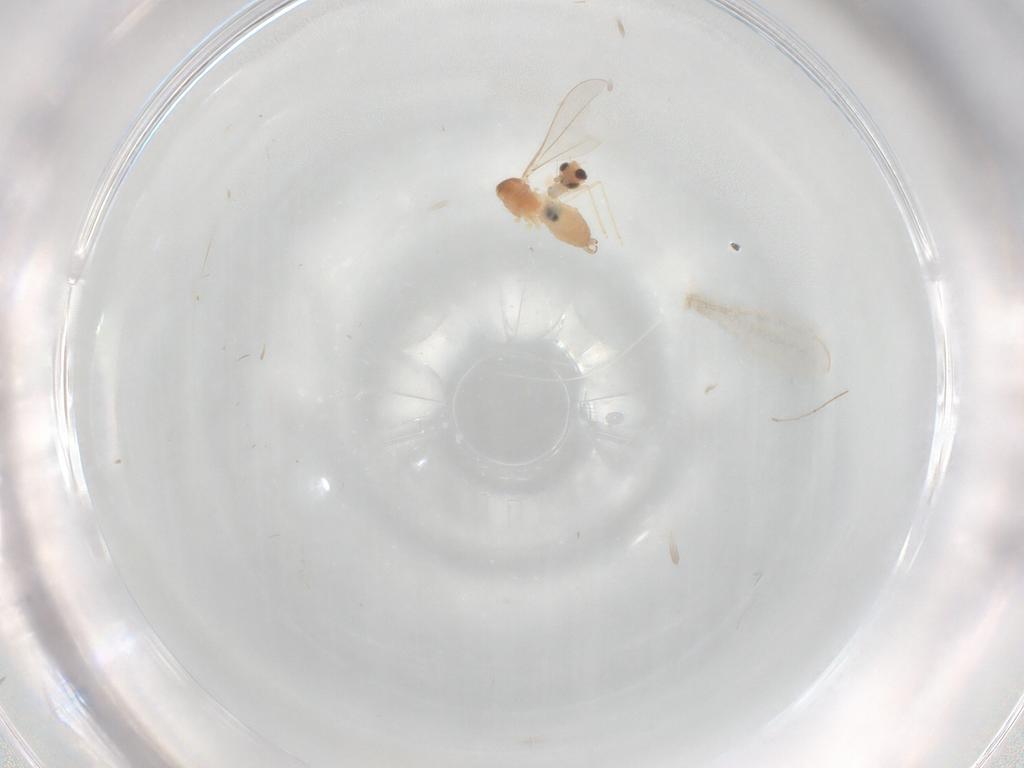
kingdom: Animalia
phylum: Arthropoda
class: Insecta
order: Diptera
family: Cecidomyiidae
